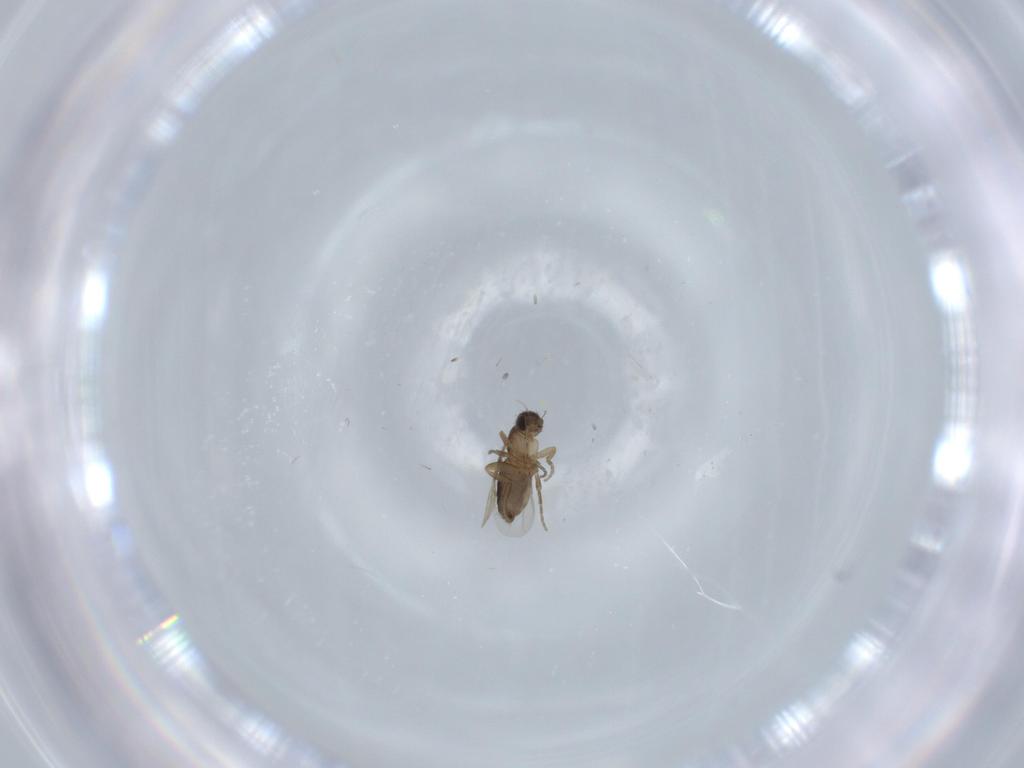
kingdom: Animalia
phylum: Arthropoda
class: Insecta
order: Diptera
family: Phoridae
